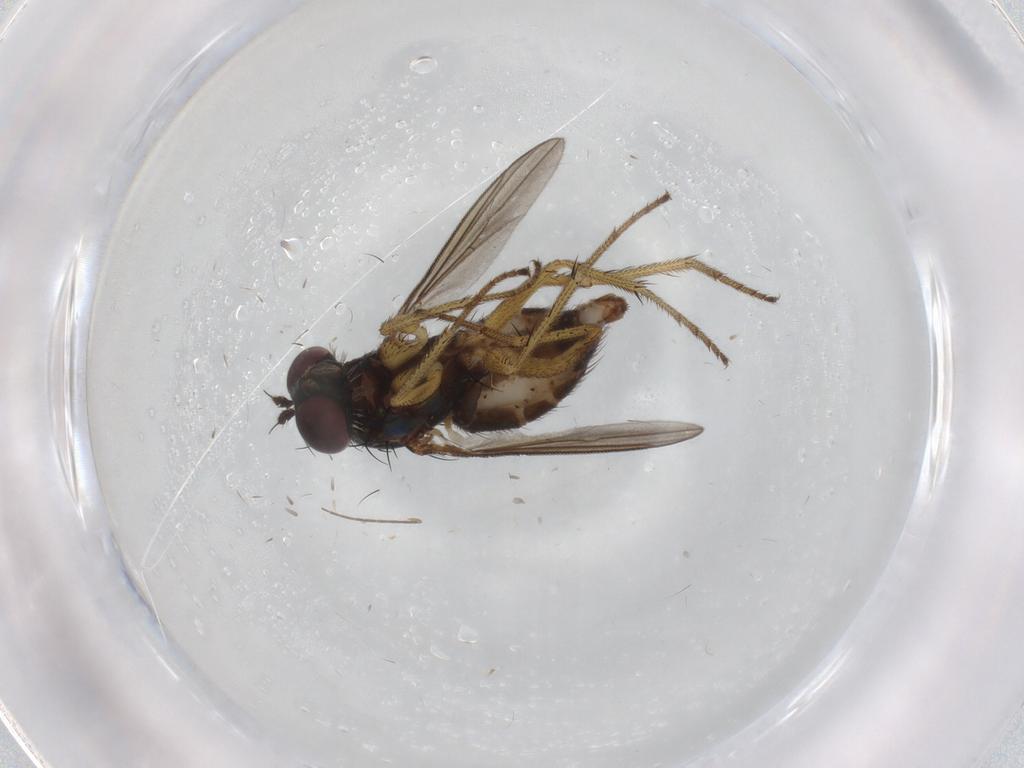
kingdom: Animalia
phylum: Arthropoda
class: Insecta
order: Diptera
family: Dolichopodidae
